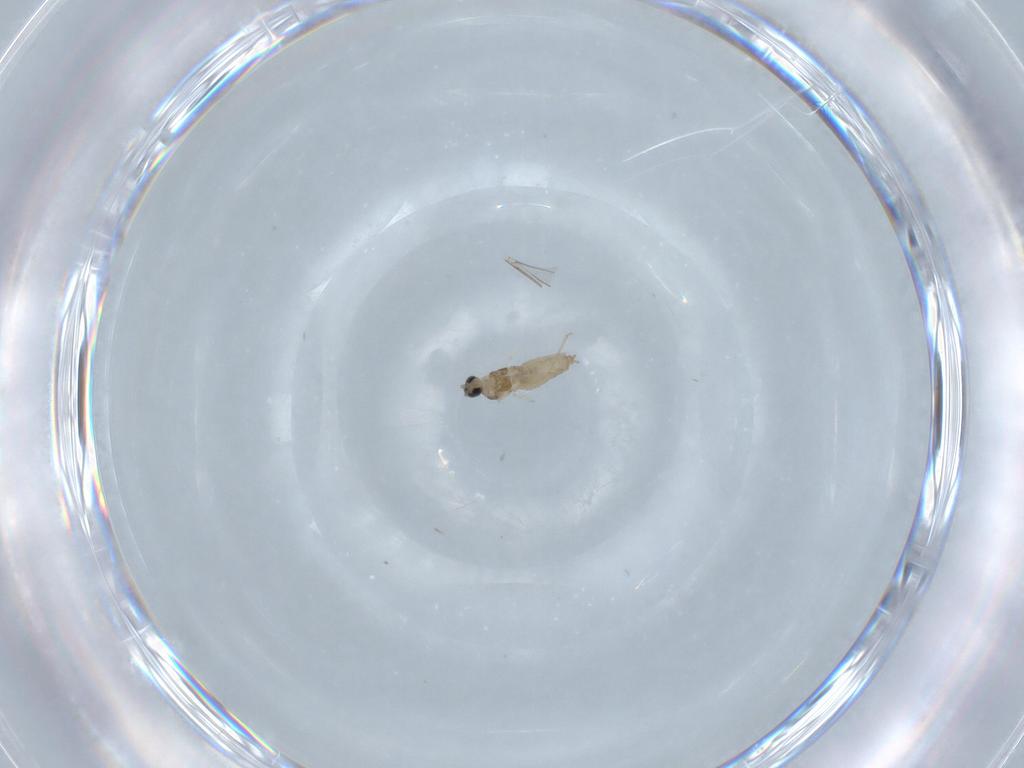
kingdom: Animalia
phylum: Arthropoda
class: Insecta
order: Diptera
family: Cecidomyiidae
